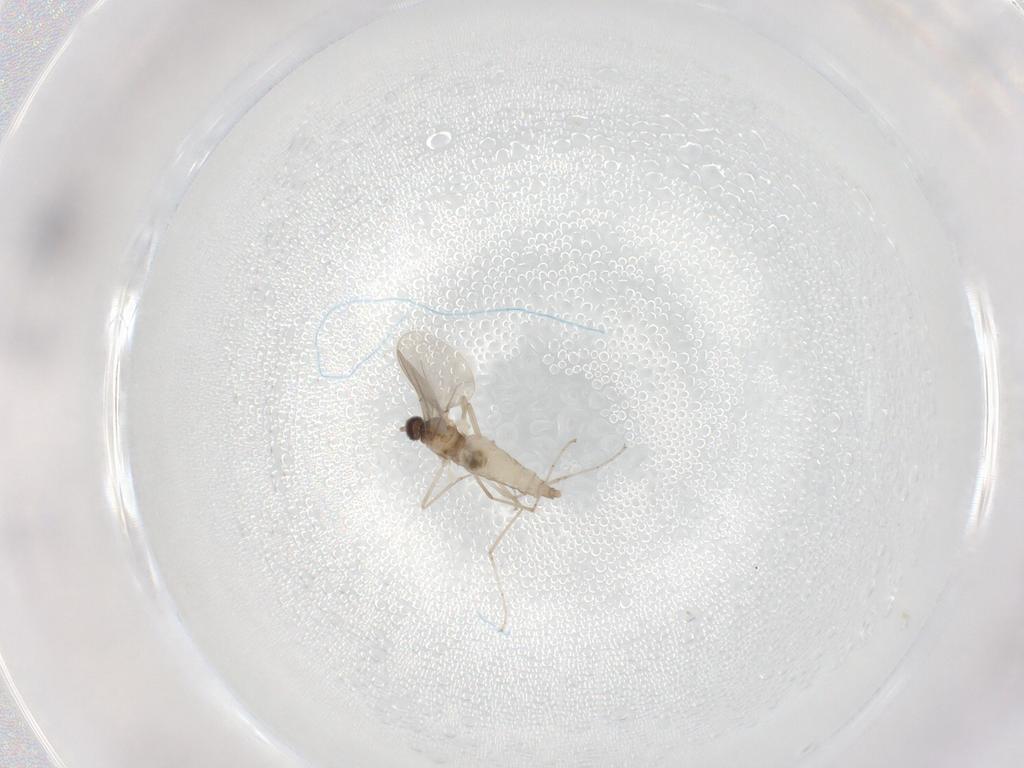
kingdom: Animalia
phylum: Arthropoda
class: Insecta
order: Diptera
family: Cecidomyiidae
